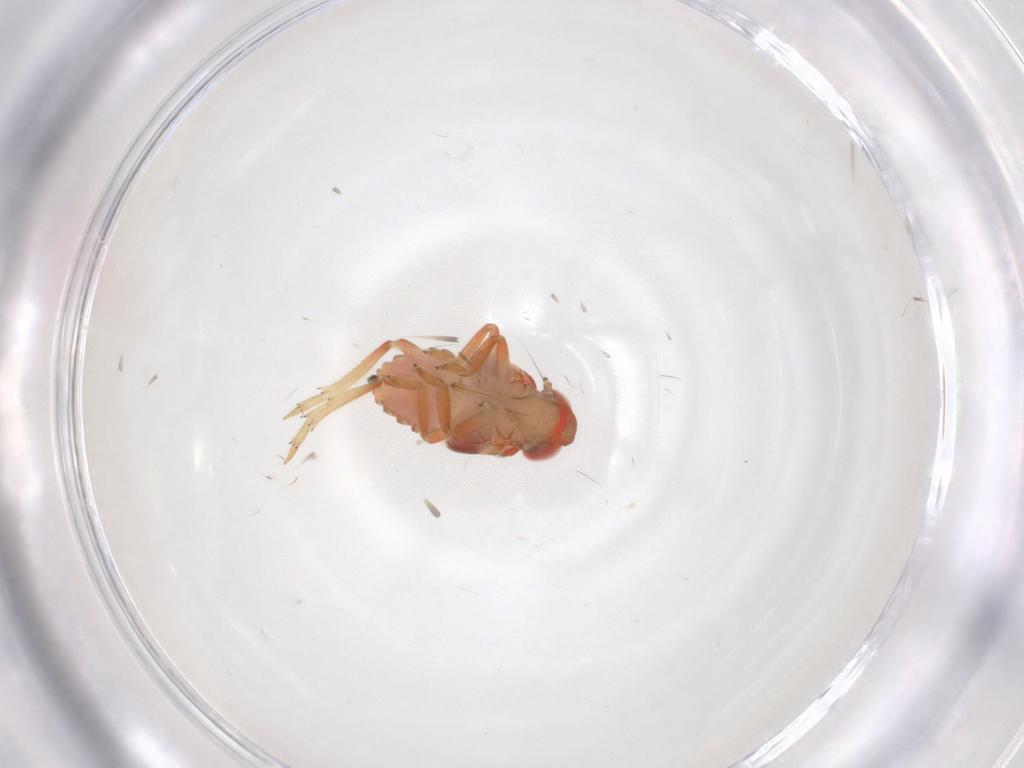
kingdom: Animalia
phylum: Arthropoda
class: Insecta
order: Hemiptera
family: Issidae
